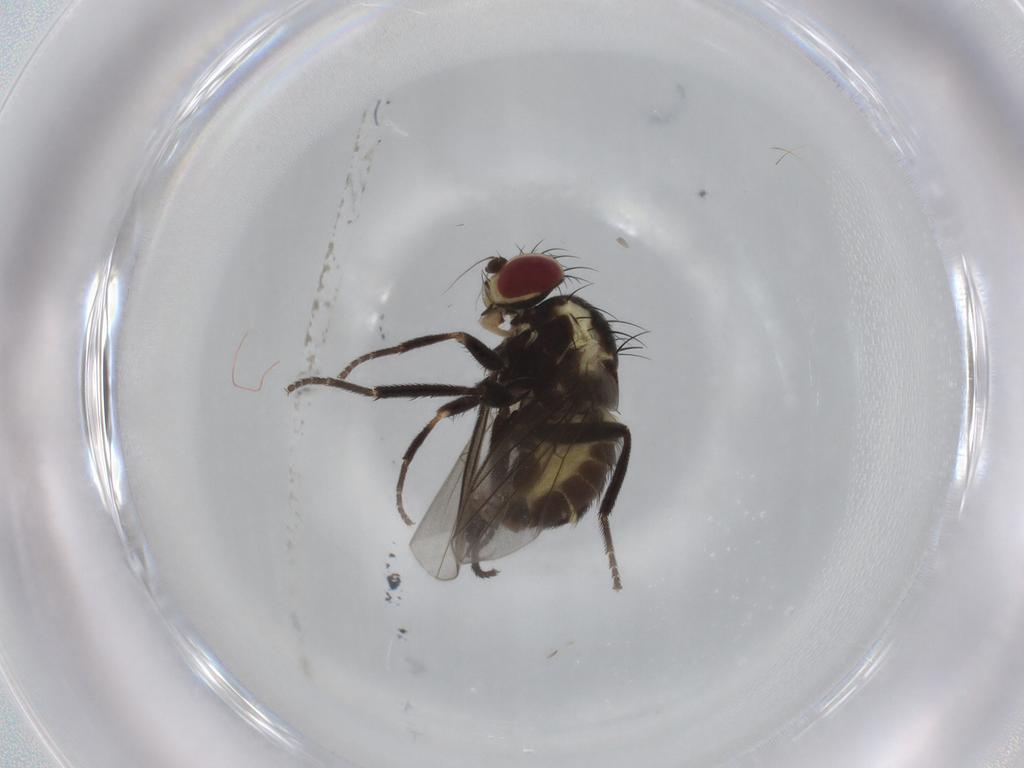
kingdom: Animalia
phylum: Arthropoda
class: Insecta
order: Diptera
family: Agromyzidae
